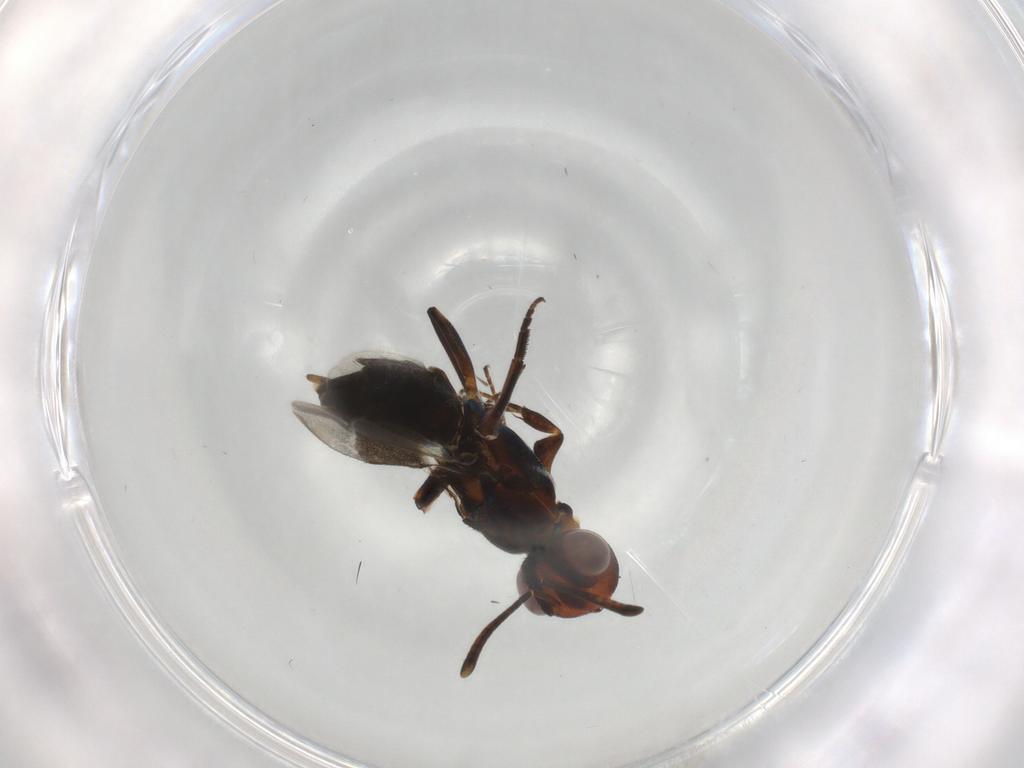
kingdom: Animalia
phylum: Arthropoda
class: Insecta
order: Hymenoptera
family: Eupelmidae
